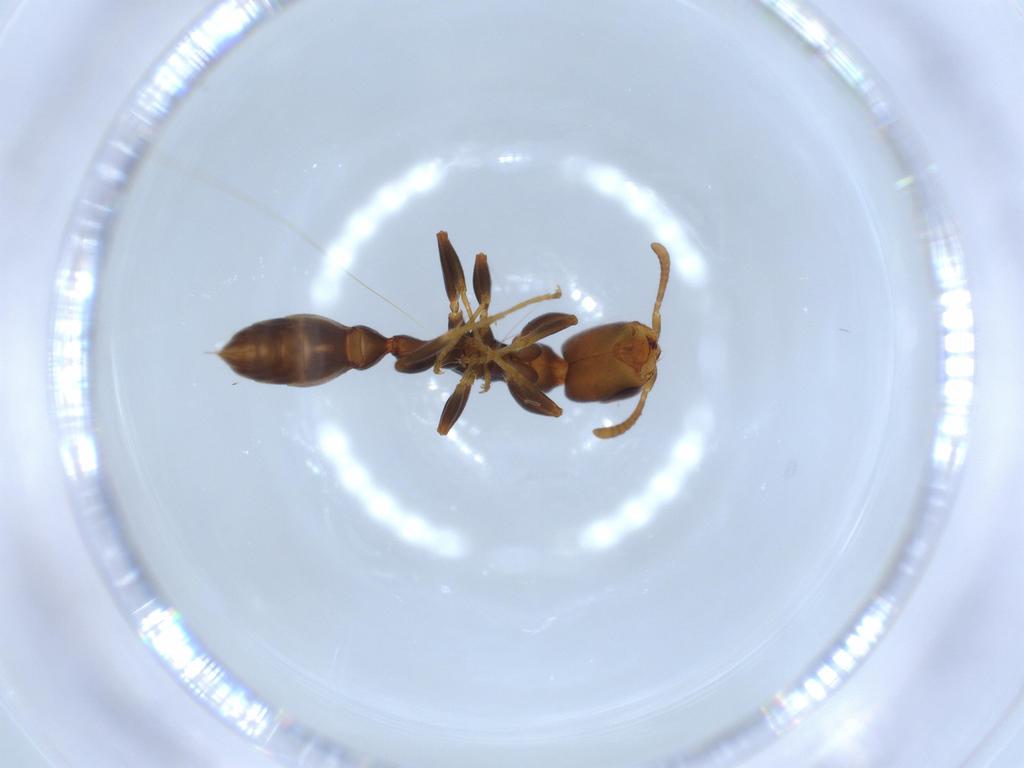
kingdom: Animalia
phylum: Arthropoda
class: Insecta
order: Hymenoptera
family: Formicidae
